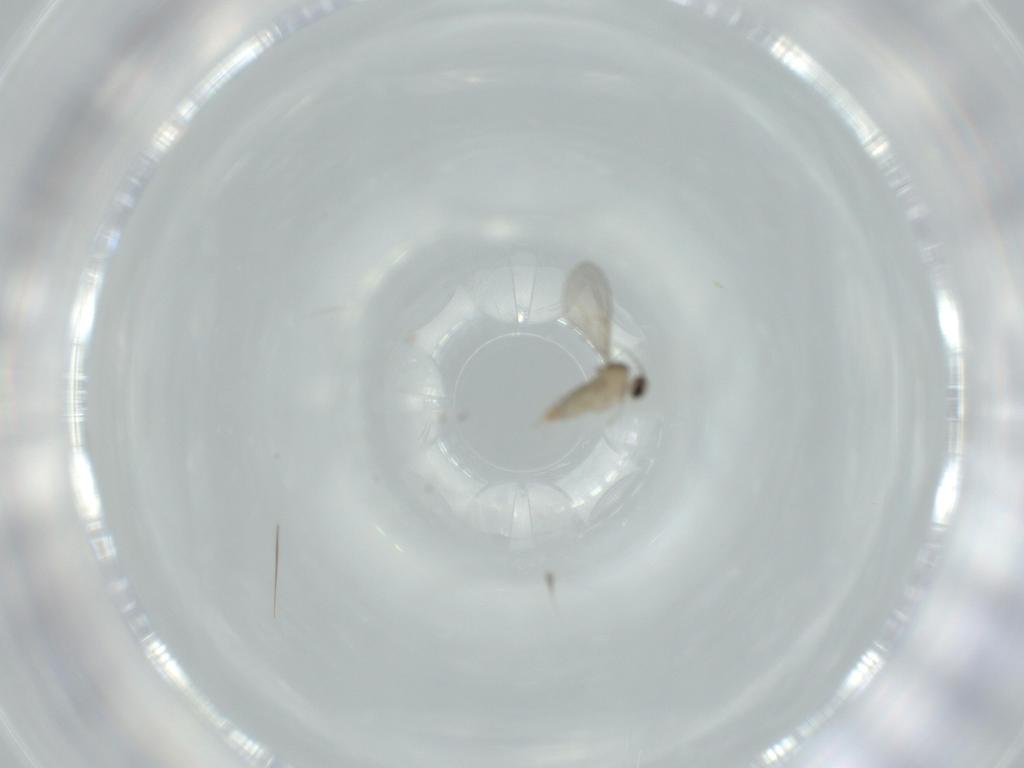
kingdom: Animalia
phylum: Arthropoda
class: Insecta
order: Diptera
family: Cecidomyiidae
